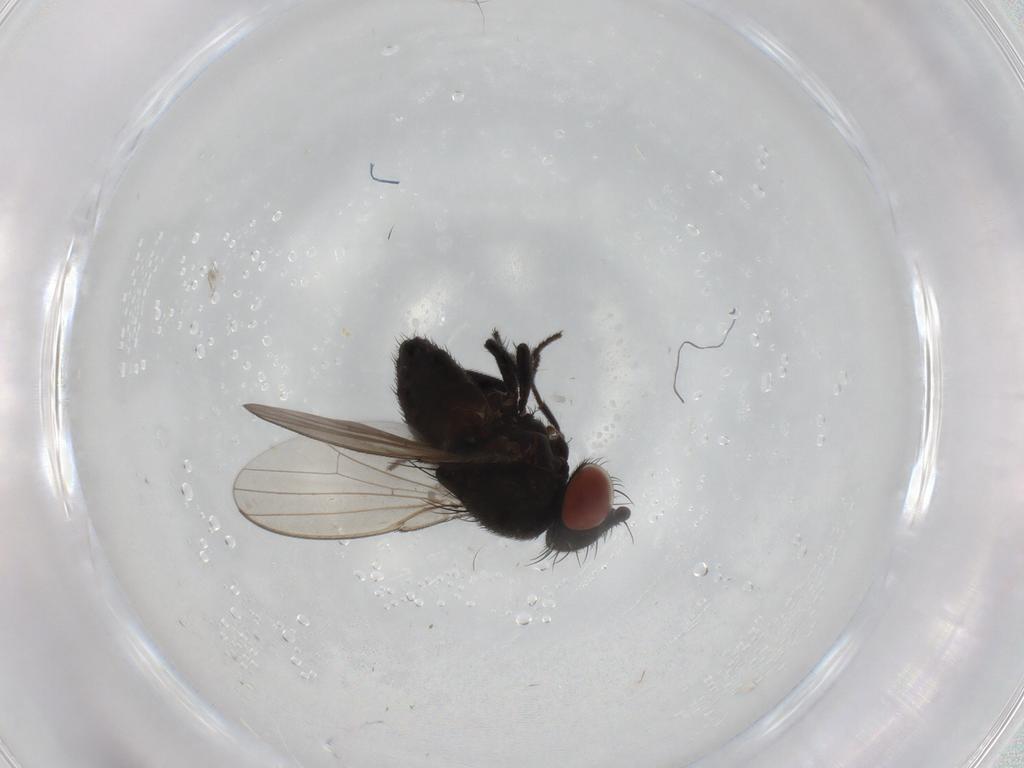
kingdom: Animalia
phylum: Arthropoda
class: Insecta
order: Diptera
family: Milichiidae
